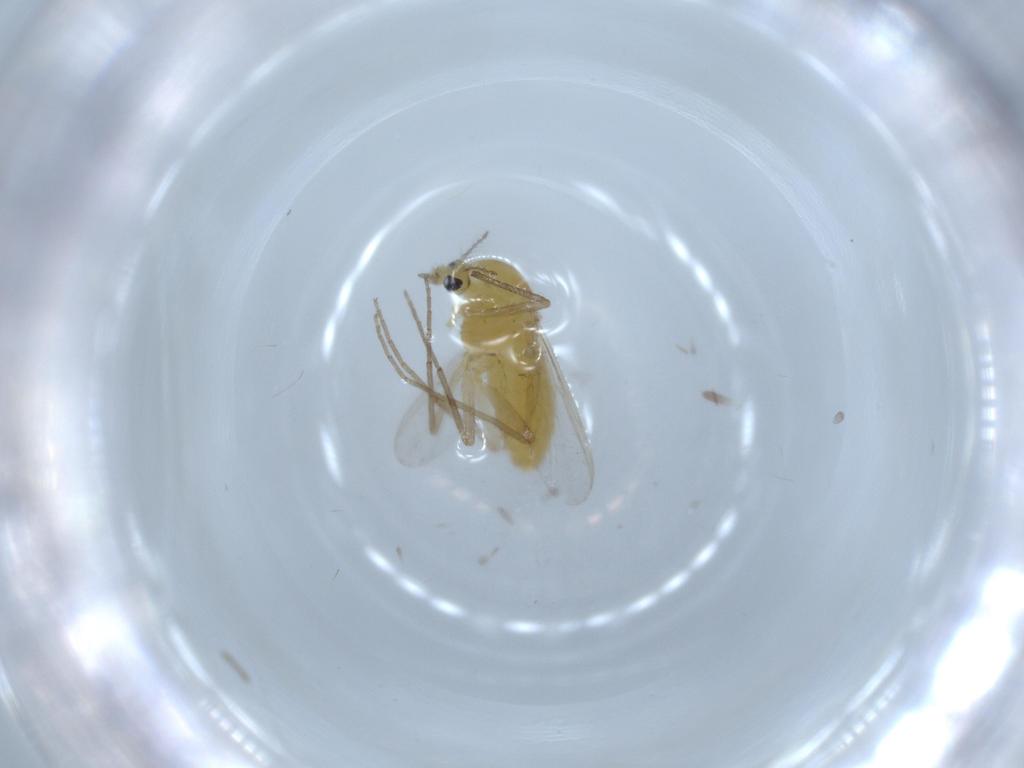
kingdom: Animalia
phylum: Arthropoda
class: Insecta
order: Diptera
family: Chironomidae
